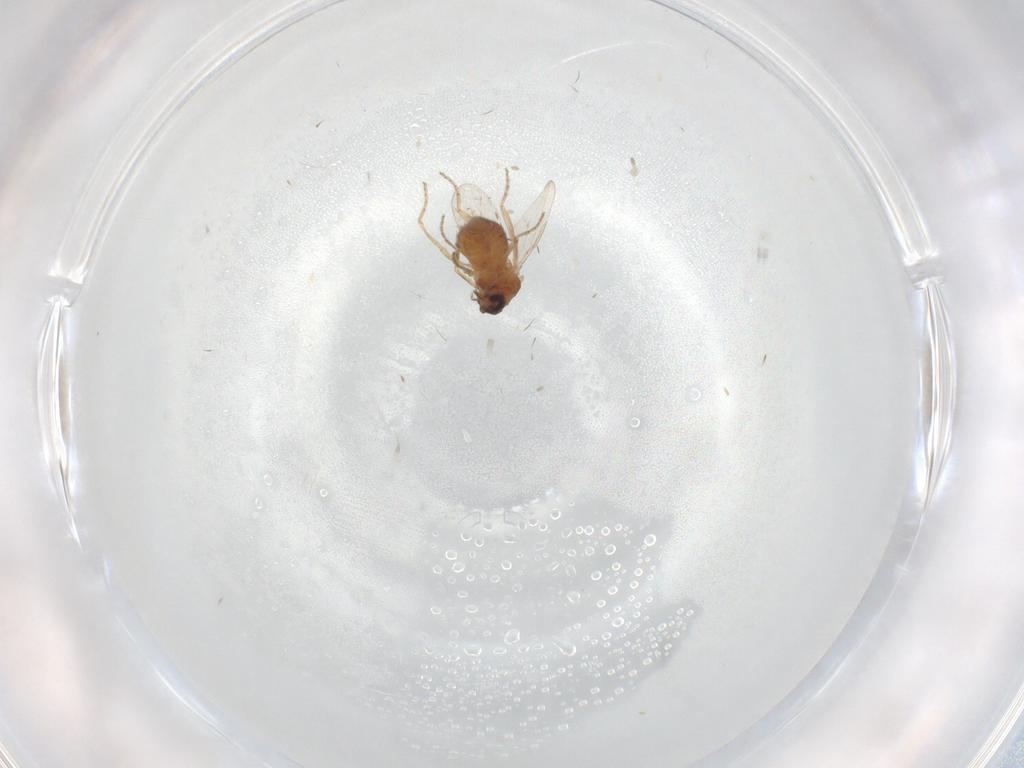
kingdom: Animalia
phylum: Arthropoda
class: Insecta
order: Diptera
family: Ceratopogonidae
